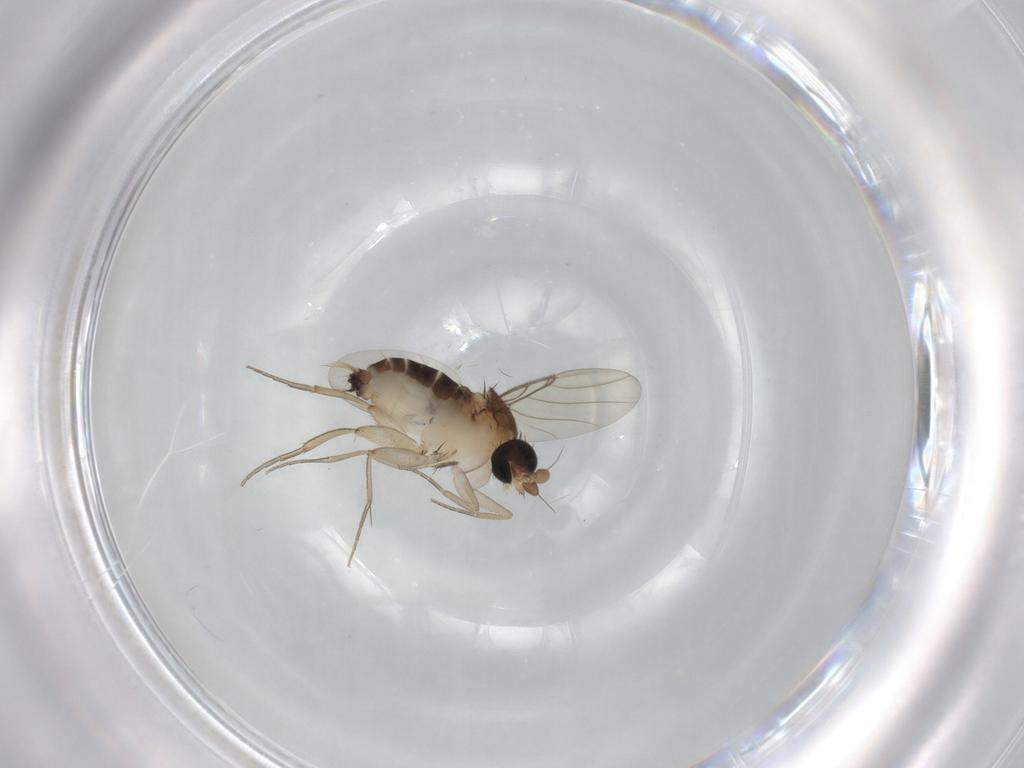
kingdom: Animalia
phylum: Arthropoda
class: Insecta
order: Diptera
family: Phoridae
